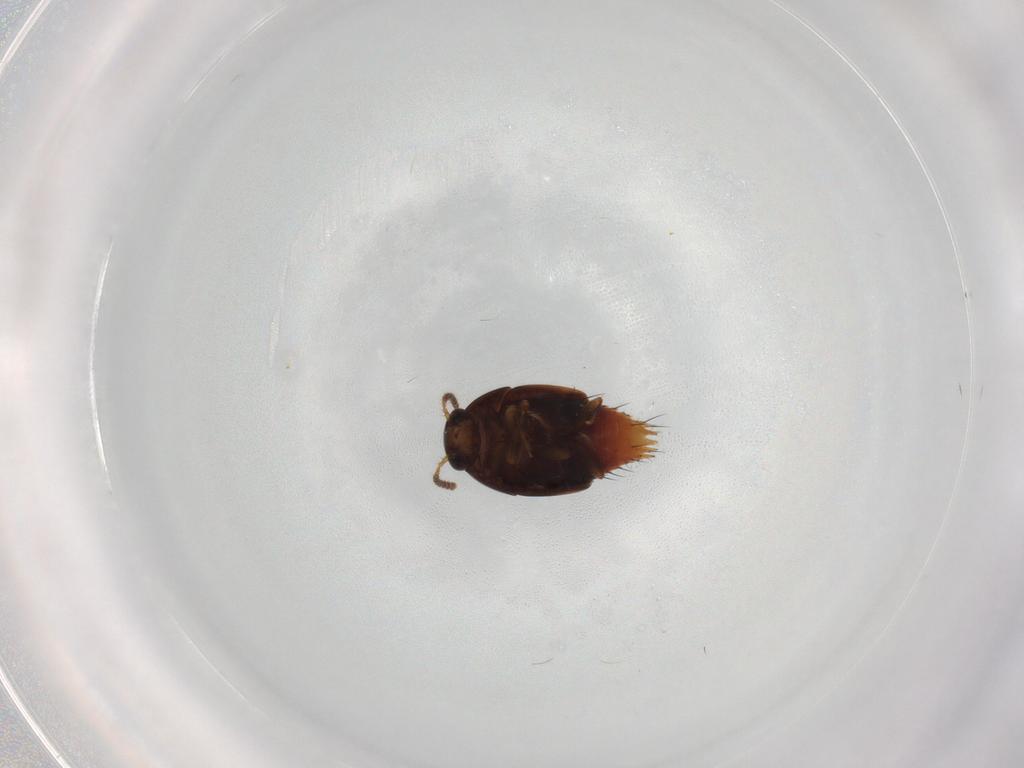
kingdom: Animalia
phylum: Arthropoda
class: Insecta
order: Coleoptera
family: Staphylinidae
